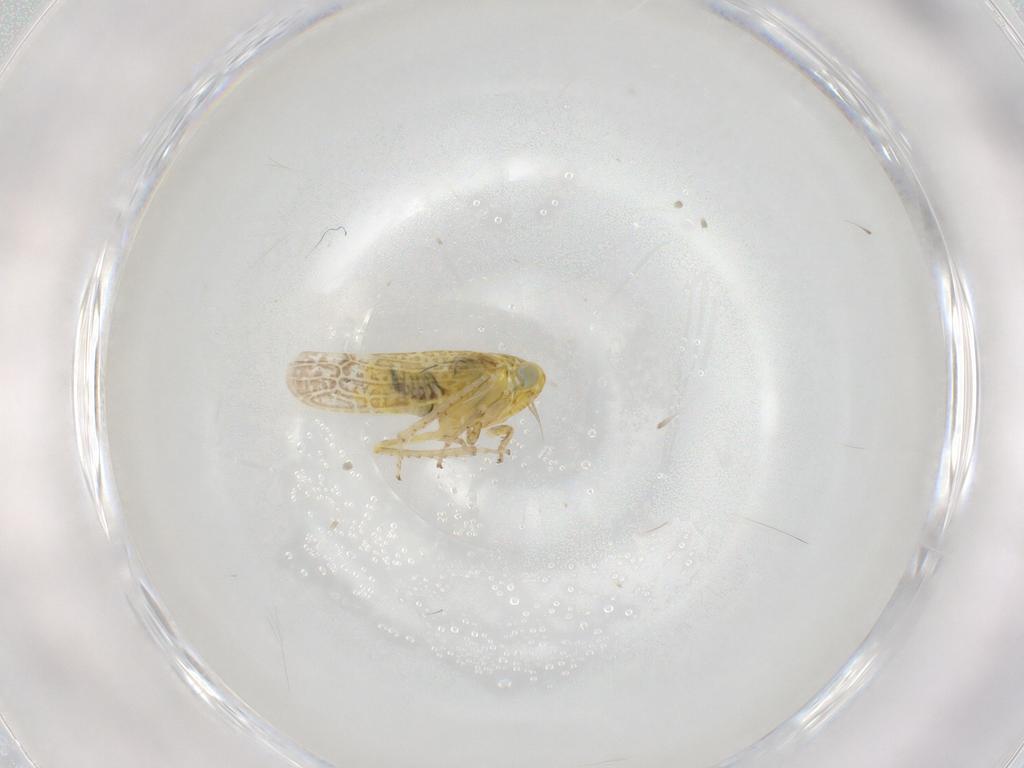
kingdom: Animalia
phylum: Arthropoda
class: Insecta
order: Hemiptera
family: Cicadellidae
